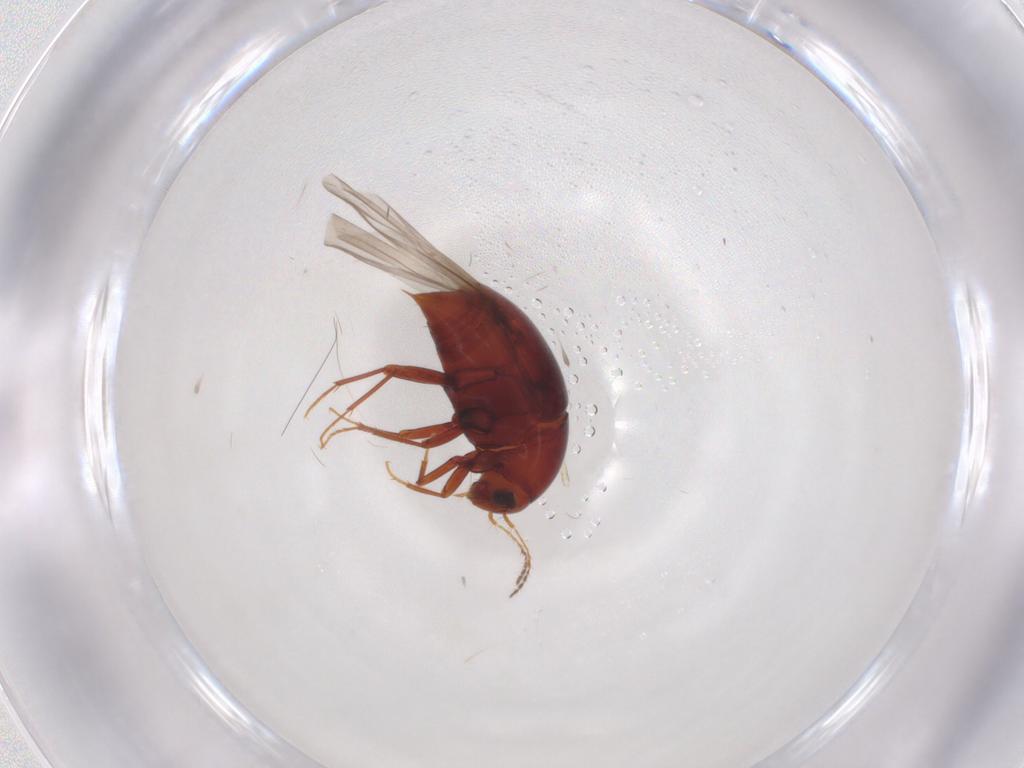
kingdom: Animalia
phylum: Arthropoda
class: Insecta
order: Coleoptera
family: Staphylinidae
